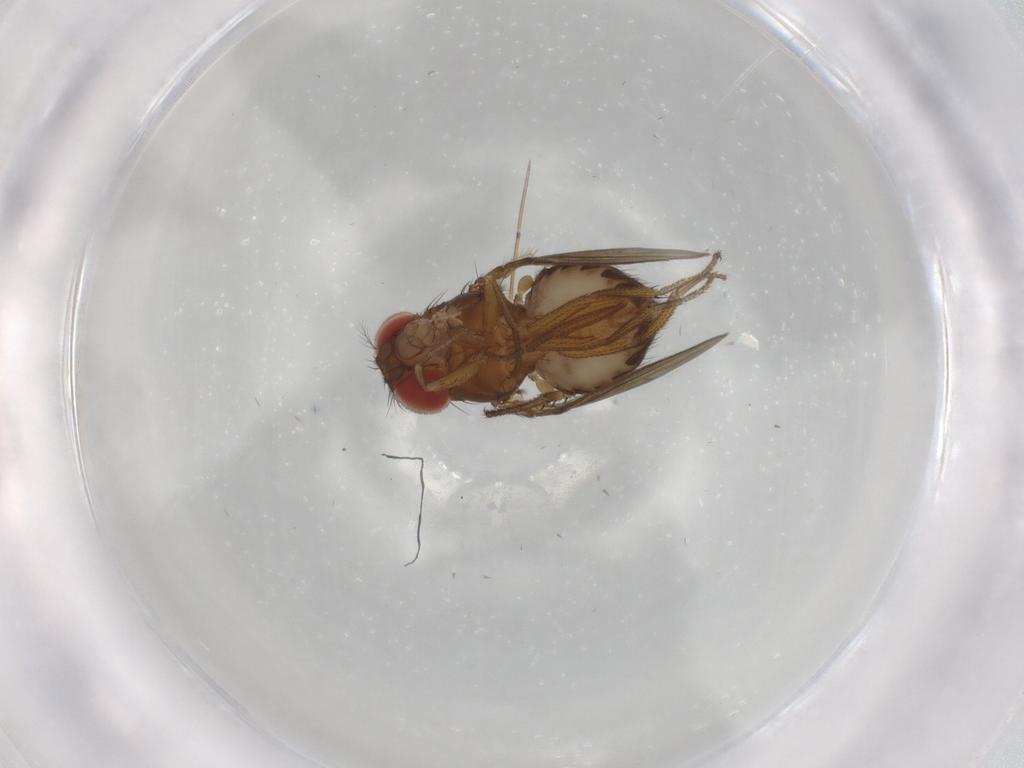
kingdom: Animalia
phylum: Arthropoda
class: Insecta
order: Diptera
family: Drosophilidae
